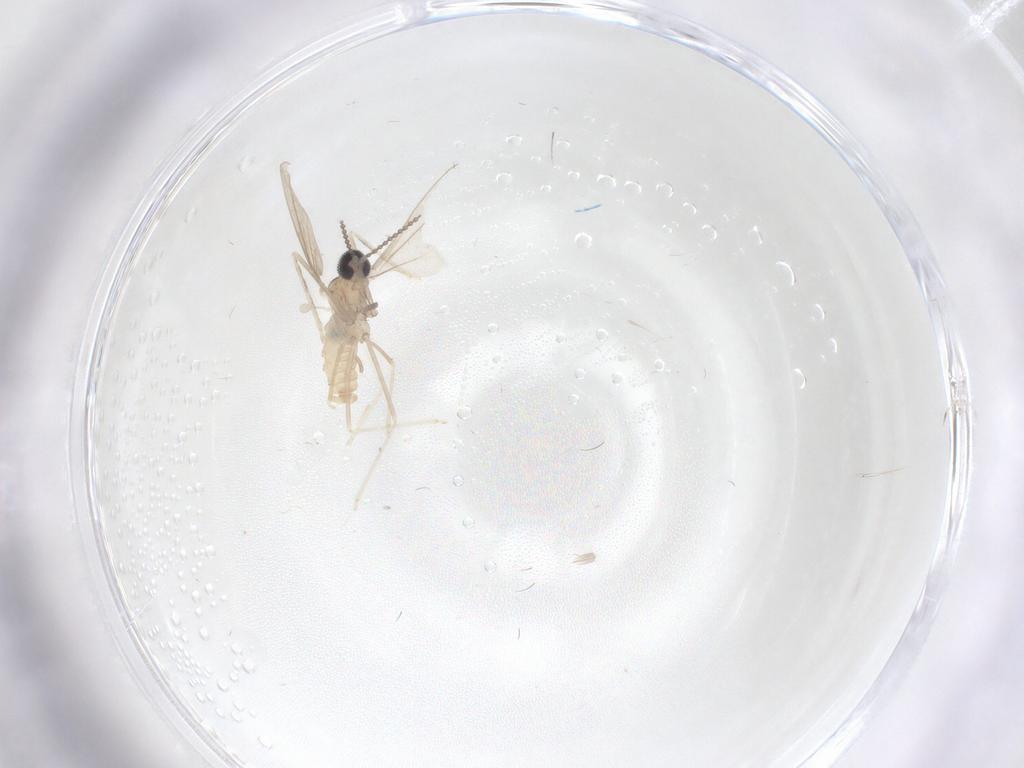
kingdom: Animalia
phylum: Arthropoda
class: Insecta
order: Diptera
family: Cecidomyiidae
